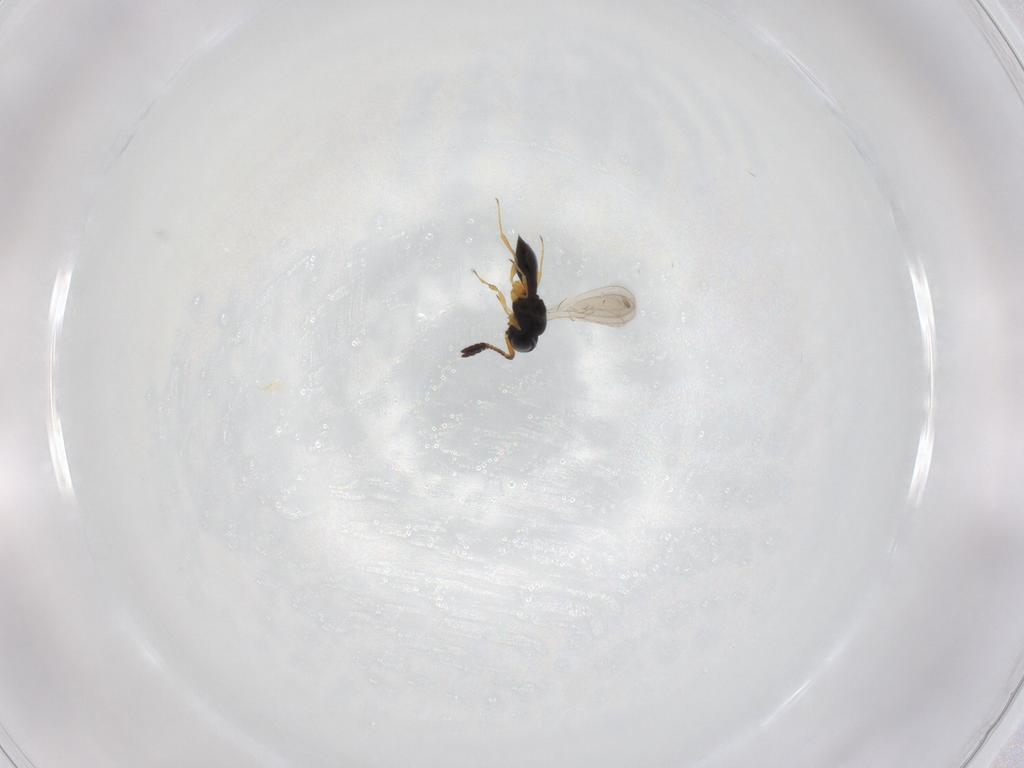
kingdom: Animalia
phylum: Arthropoda
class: Insecta
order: Hymenoptera
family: Scelionidae
